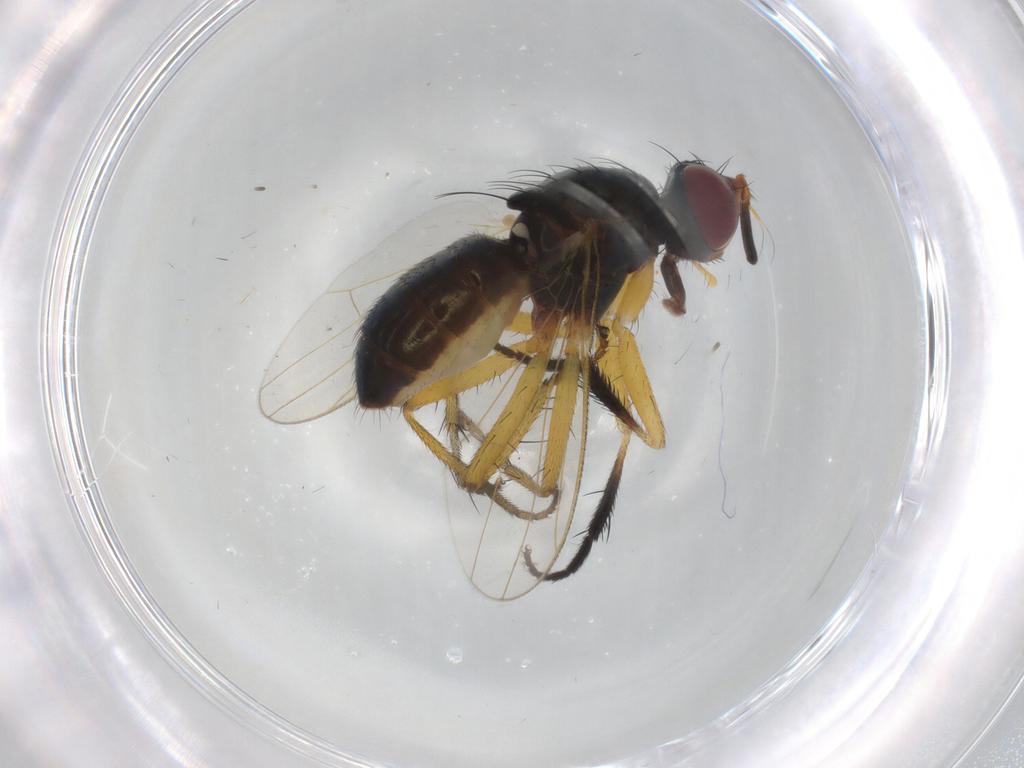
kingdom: Animalia
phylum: Arthropoda
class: Insecta
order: Diptera
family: Sciaridae
